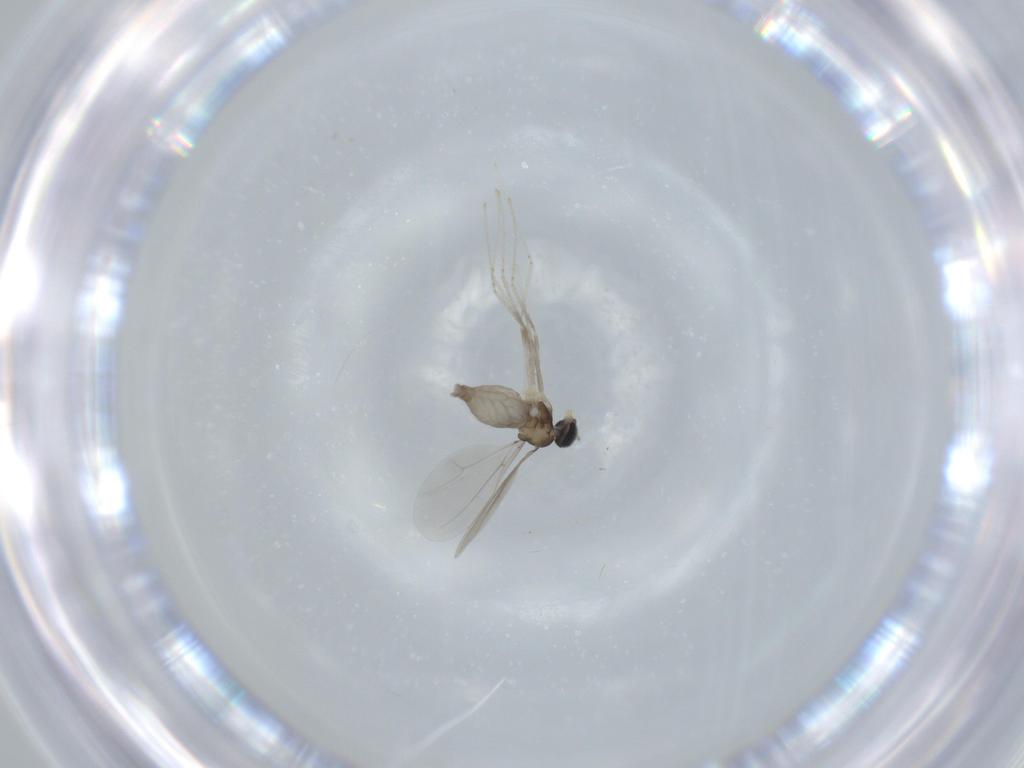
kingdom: Animalia
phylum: Arthropoda
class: Insecta
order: Diptera
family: Cecidomyiidae
